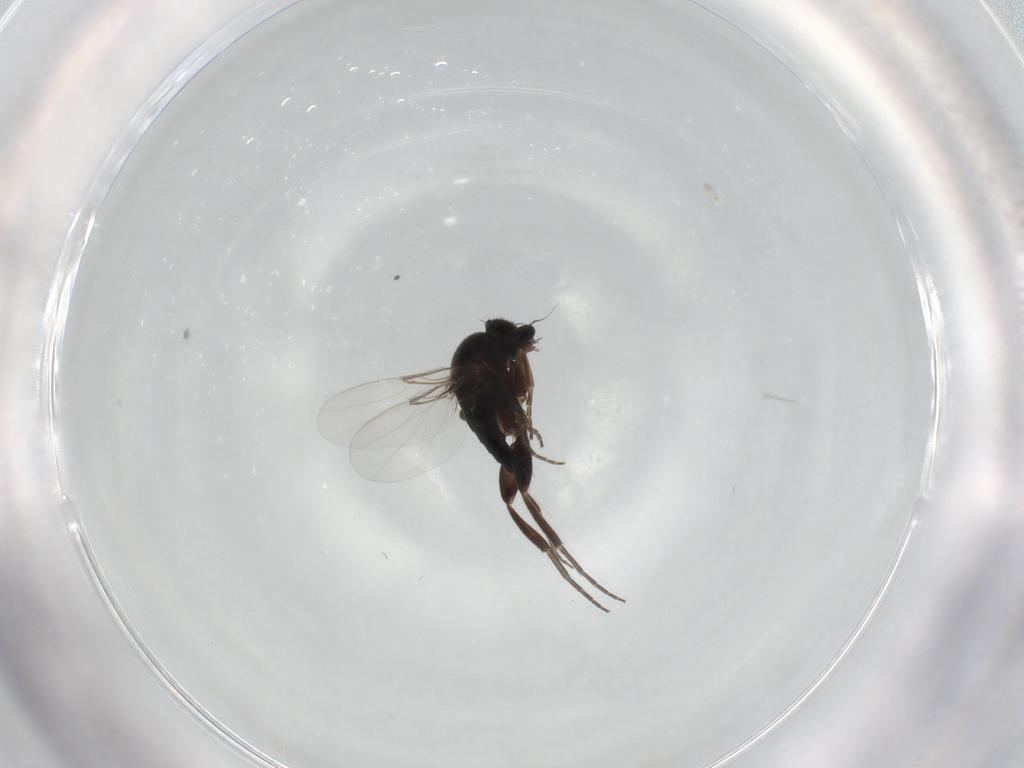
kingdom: Animalia
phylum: Arthropoda
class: Insecta
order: Diptera
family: Phoridae
